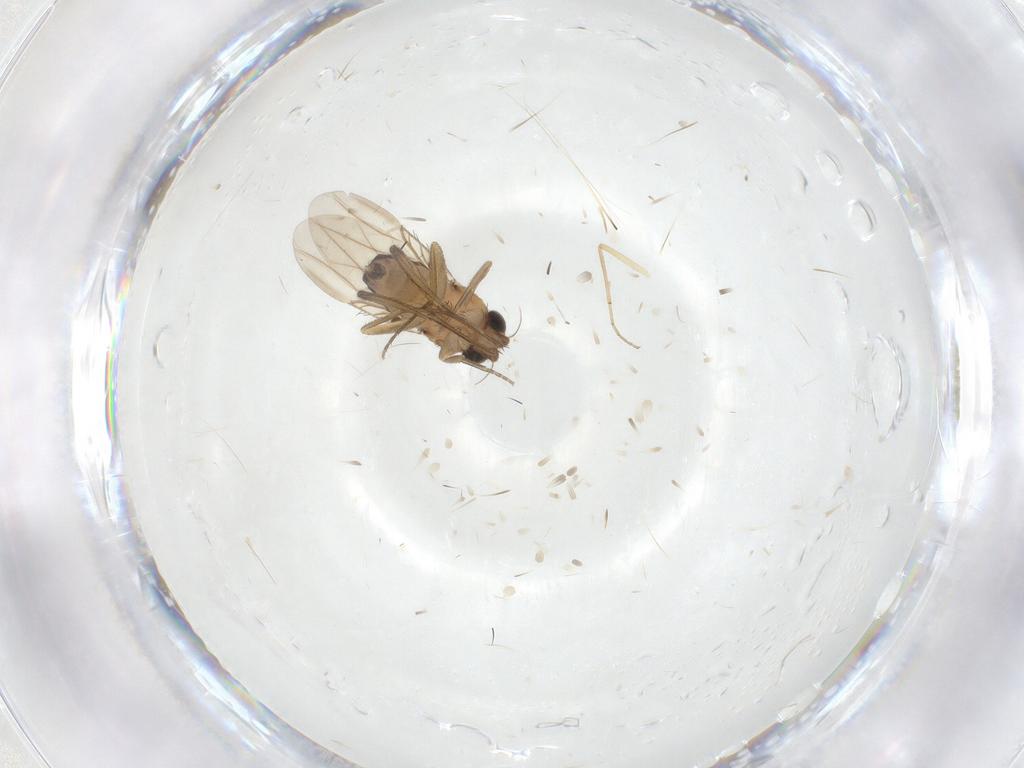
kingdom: Animalia
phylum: Arthropoda
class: Insecta
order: Diptera
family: Phoridae
